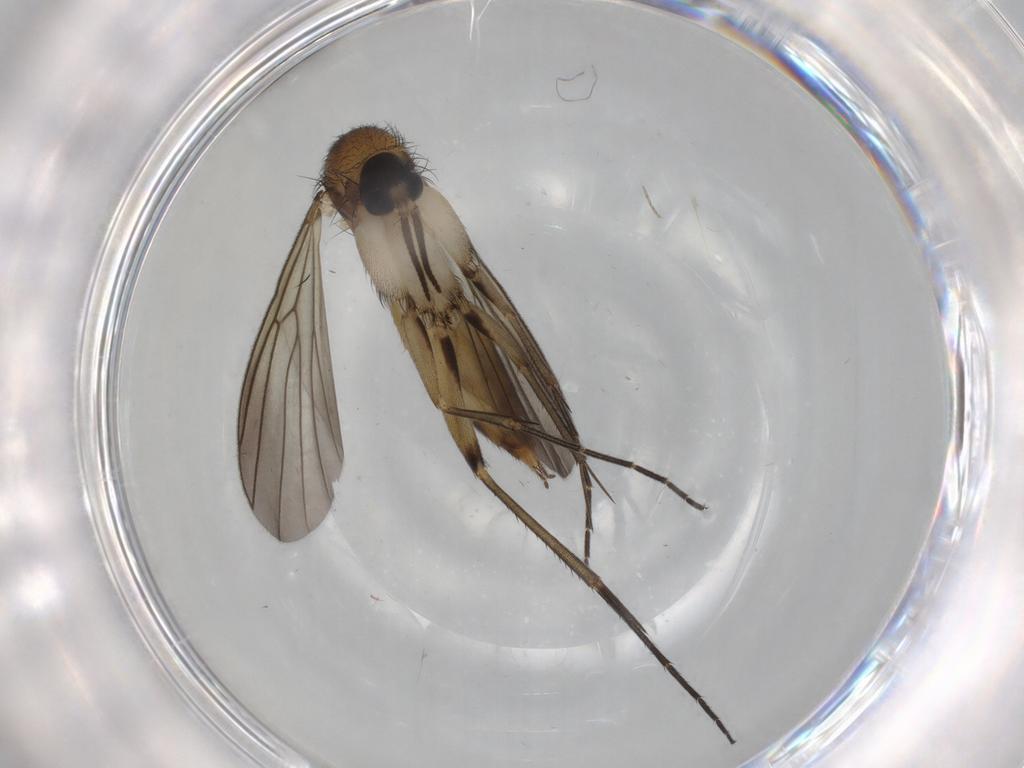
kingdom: Animalia
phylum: Arthropoda
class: Insecta
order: Diptera
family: Mycetophilidae
